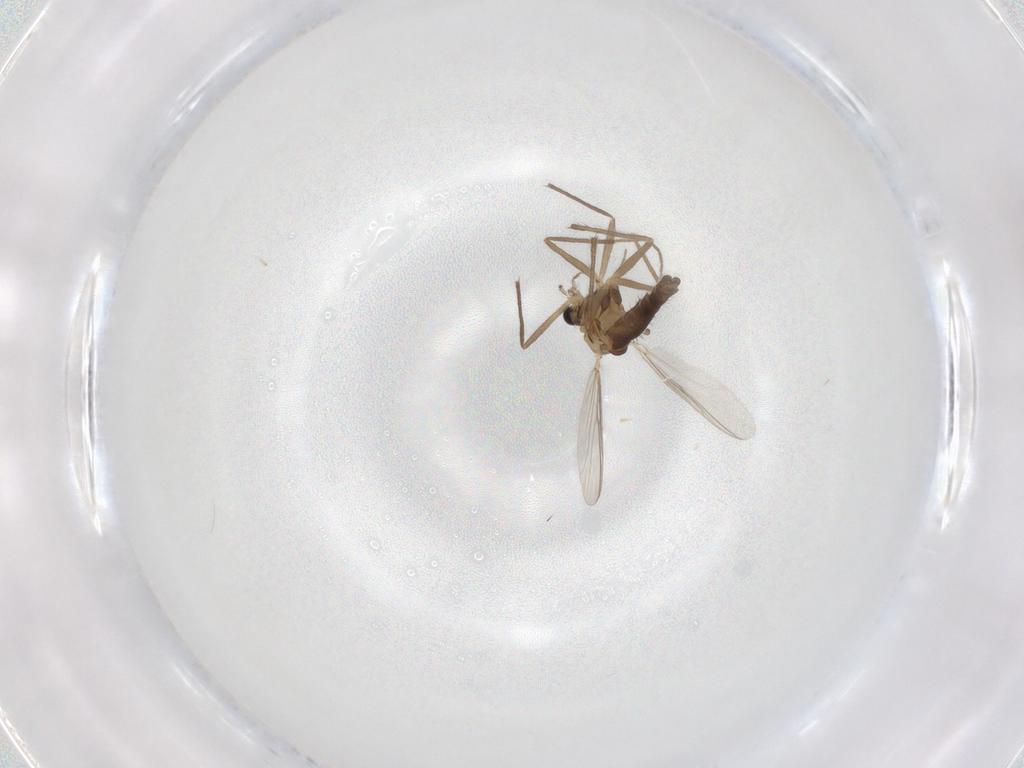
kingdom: Animalia
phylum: Arthropoda
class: Insecta
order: Diptera
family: Chironomidae
